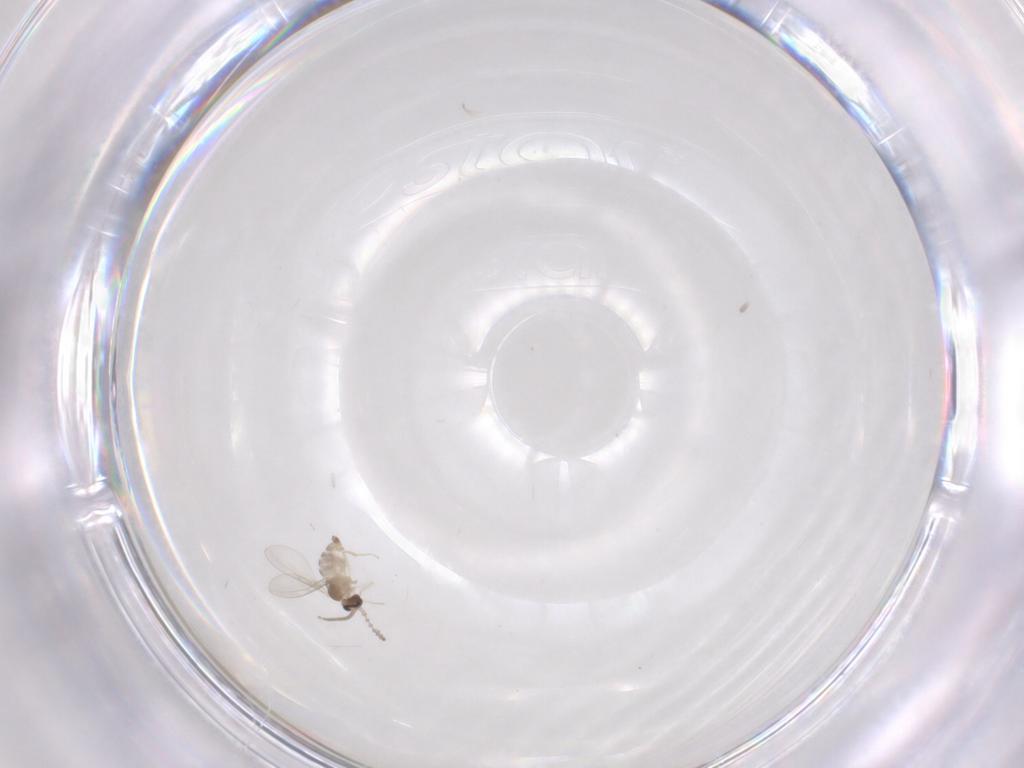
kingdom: Animalia
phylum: Arthropoda
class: Insecta
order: Diptera
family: Cecidomyiidae
